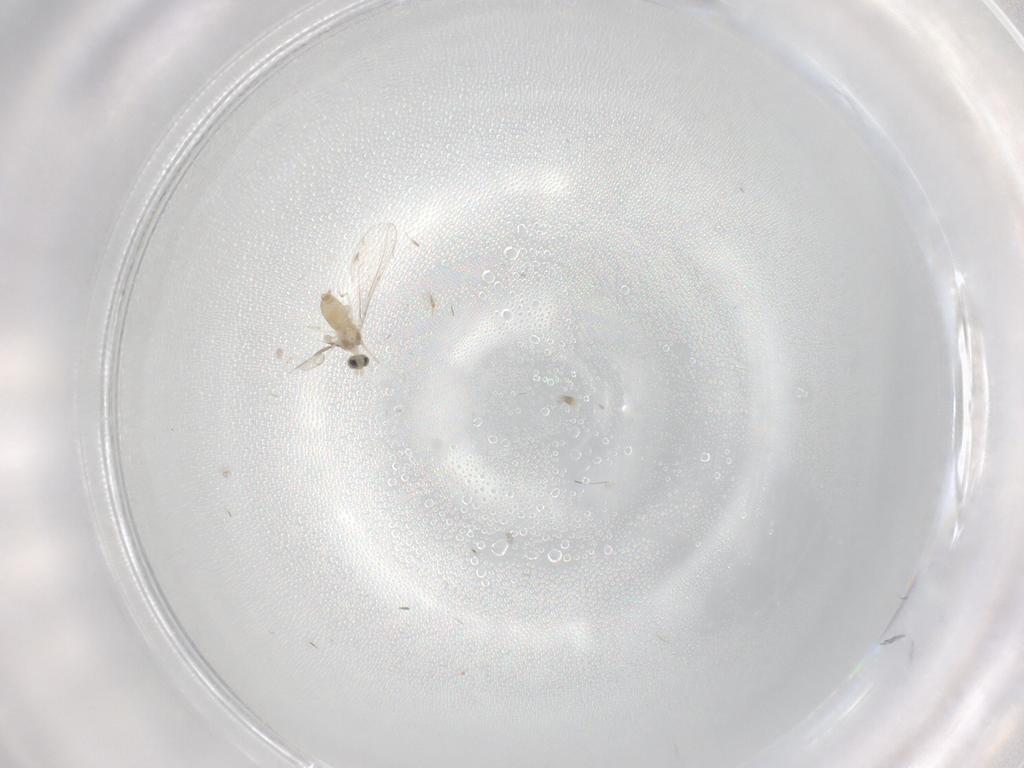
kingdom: Animalia
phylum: Arthropoda
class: Insecta
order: Diptera
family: Cecidomyiidae
